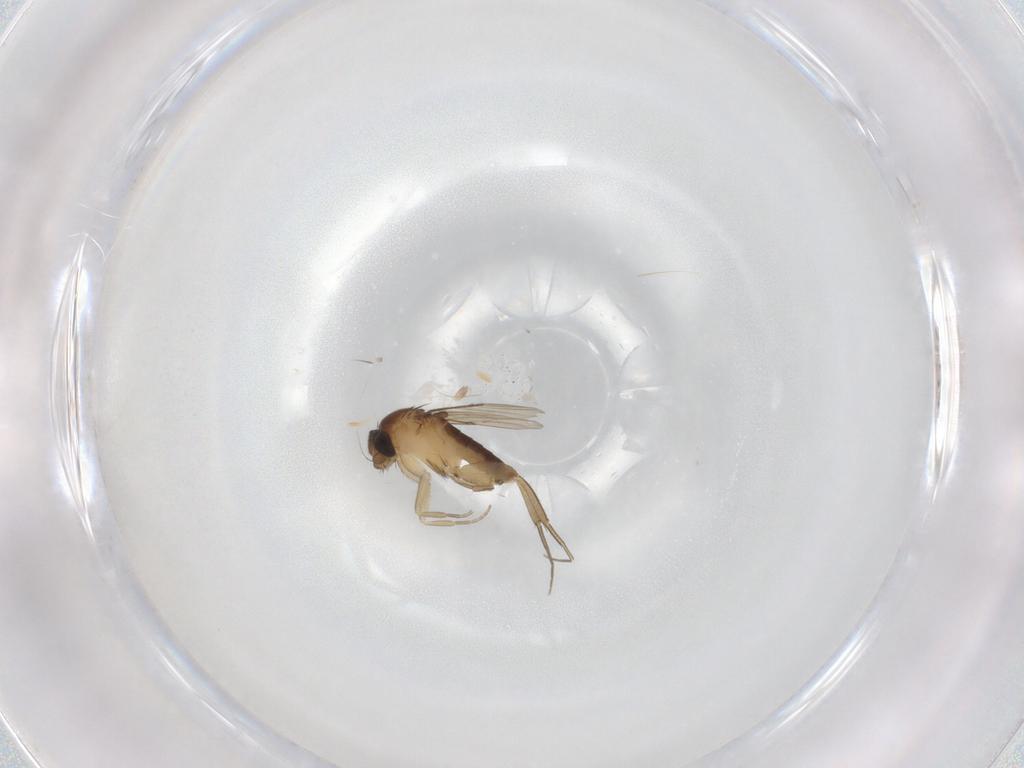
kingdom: Animalia
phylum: Arthropoda
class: Insecta
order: Diptera
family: Phoridae
